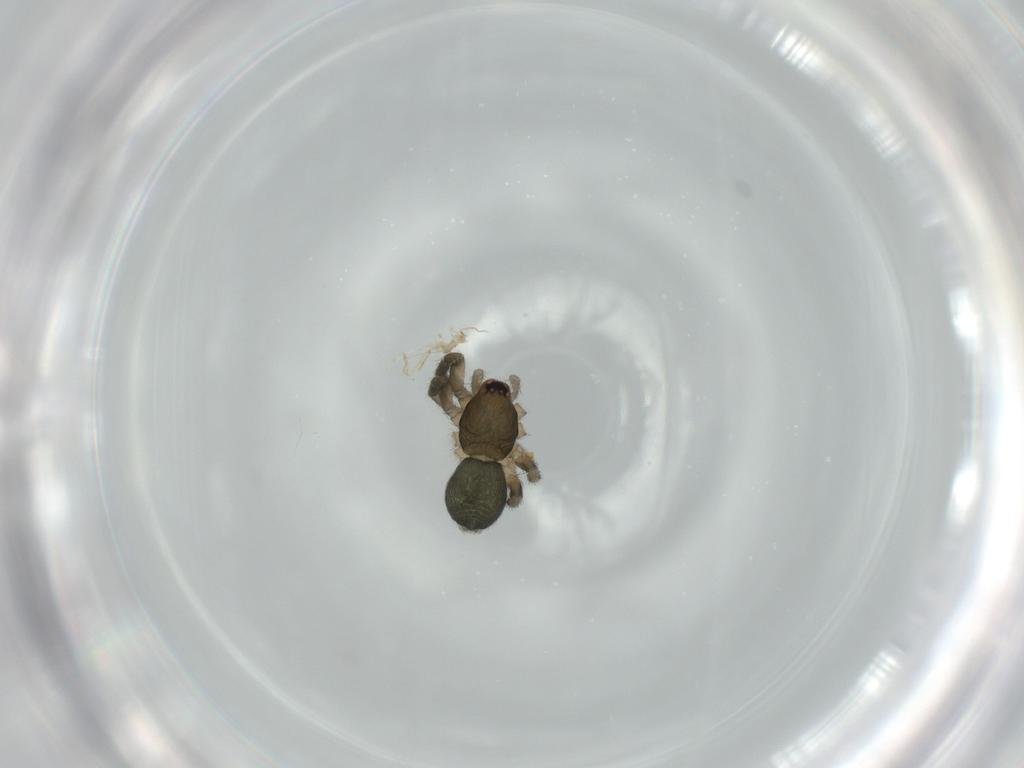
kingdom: Animalia
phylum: Arthropoda
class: Arachnida
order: Araneae
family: Gnaphosidae
